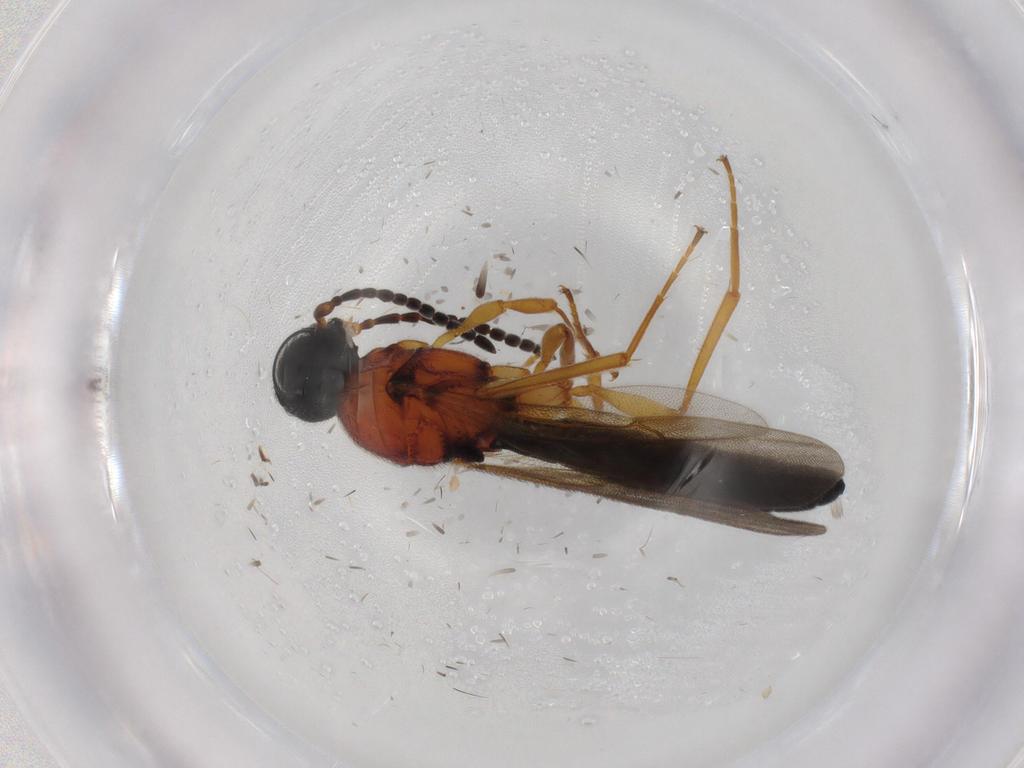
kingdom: Animalia
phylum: Arthropoda
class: Insecta
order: Hymenoptera
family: Scelionidae
